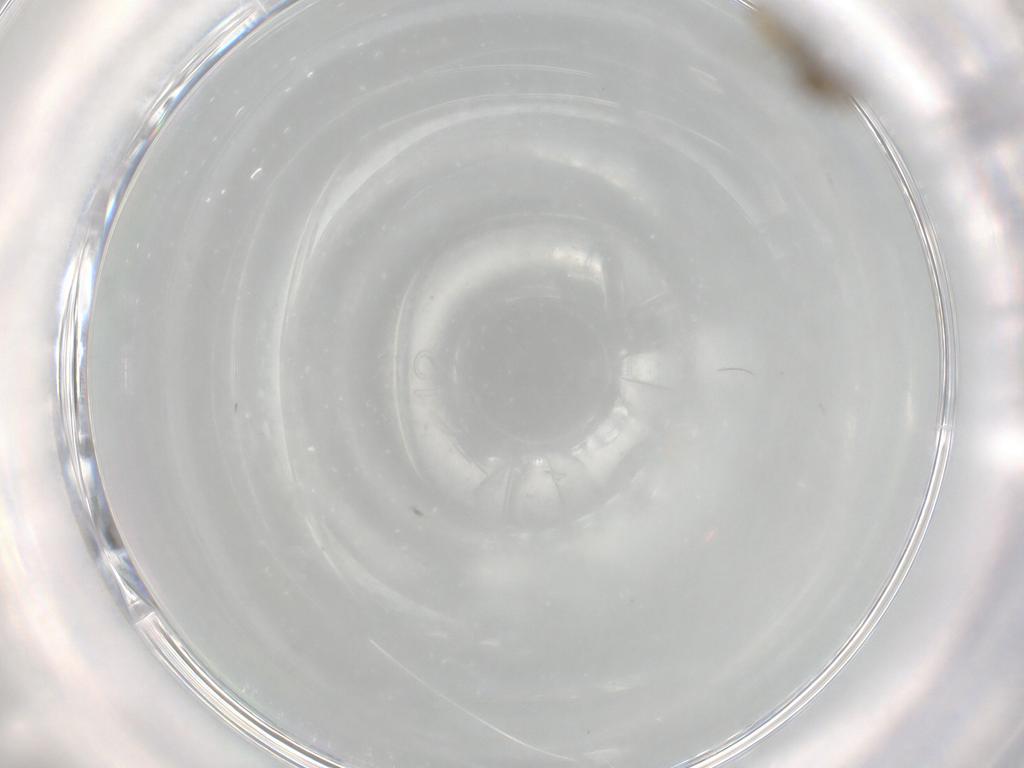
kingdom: Animalia
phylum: Arthropoda
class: Insecta
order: Diptera
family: Cecidomyiidae
